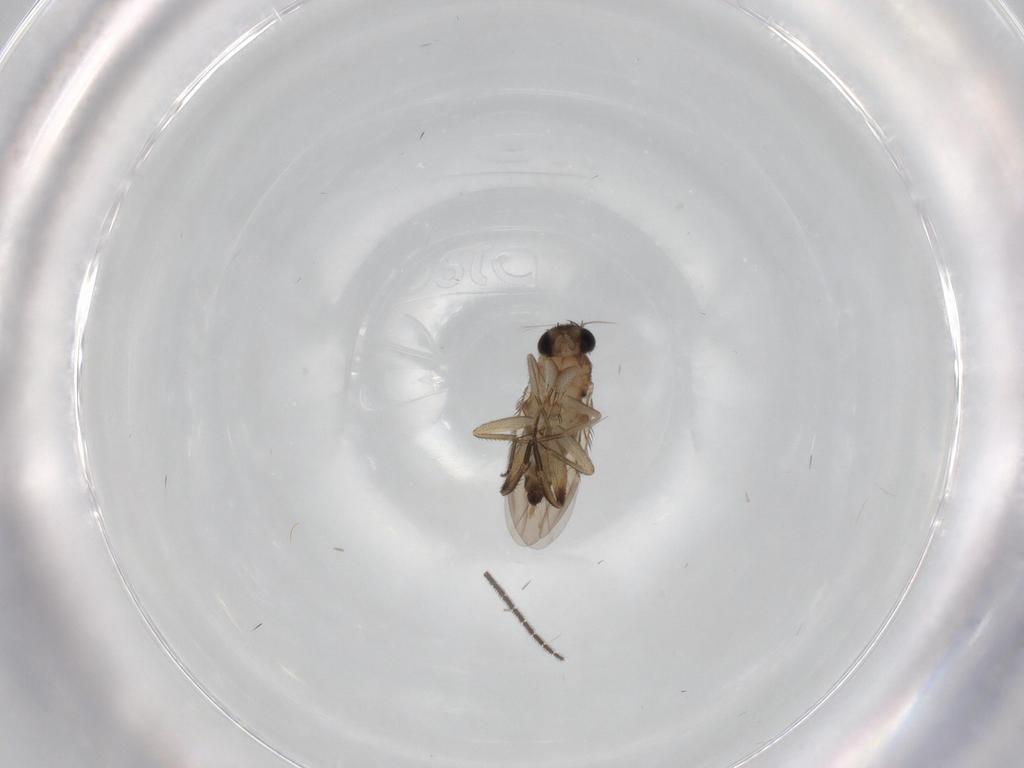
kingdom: Animalia
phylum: Arthropoda
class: Insecta
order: Diptera
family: Phoridae
